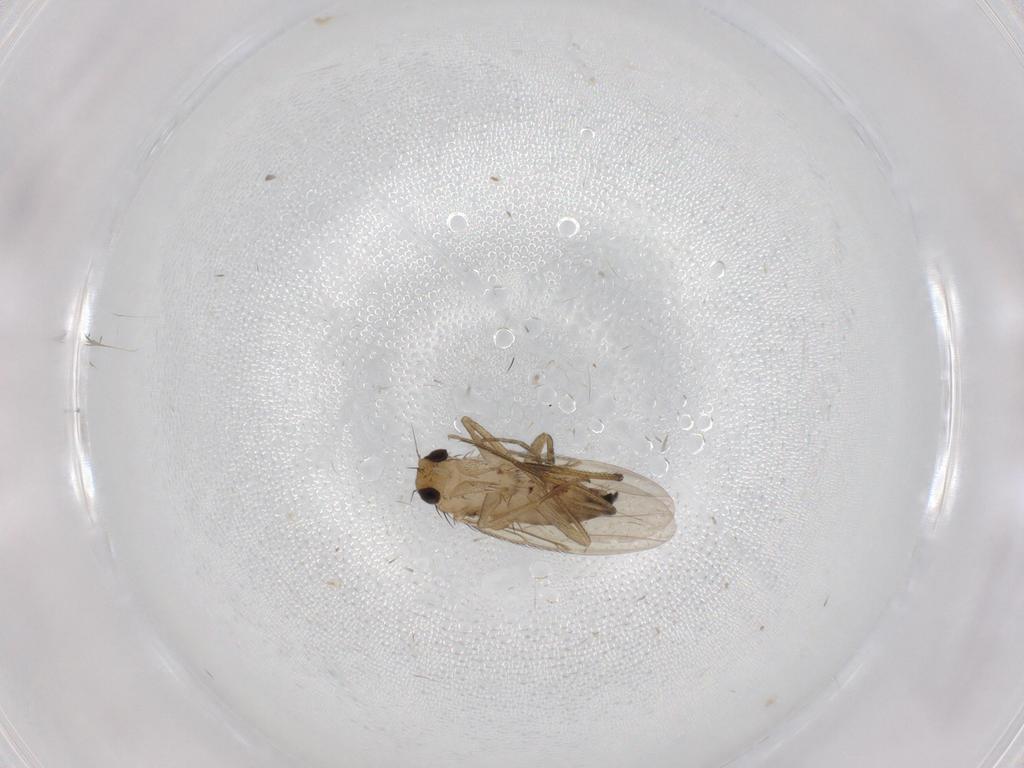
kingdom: Animalia
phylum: Arthropoda
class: Insecta
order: Diptera
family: Phoridae
